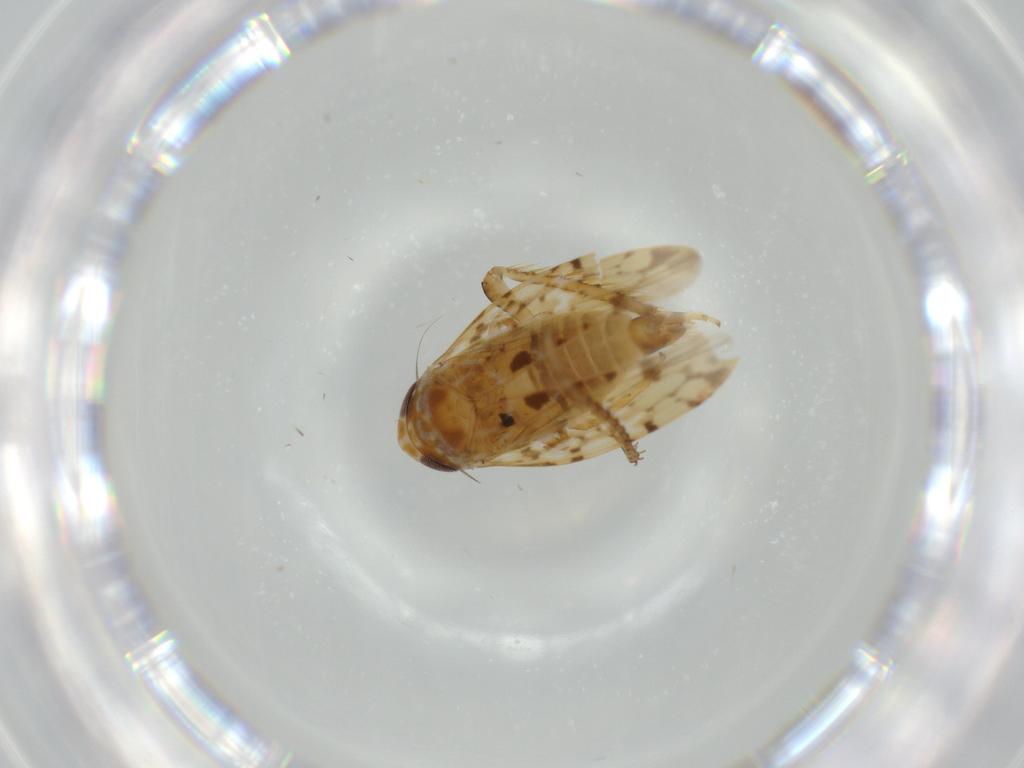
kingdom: Animalia
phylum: Arthropoda
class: Insecta
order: Hemiptera
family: Cicadellidae
